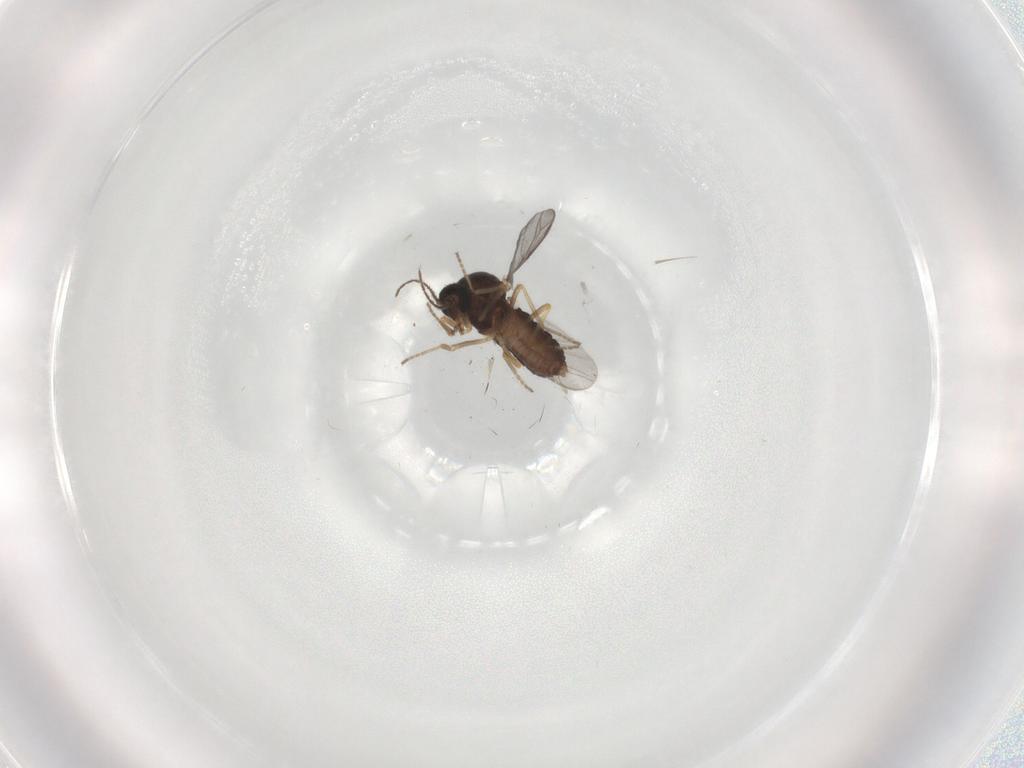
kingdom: Animalia
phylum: Arthropoda
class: Insecta
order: Diptera
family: Ceratopogonidae
